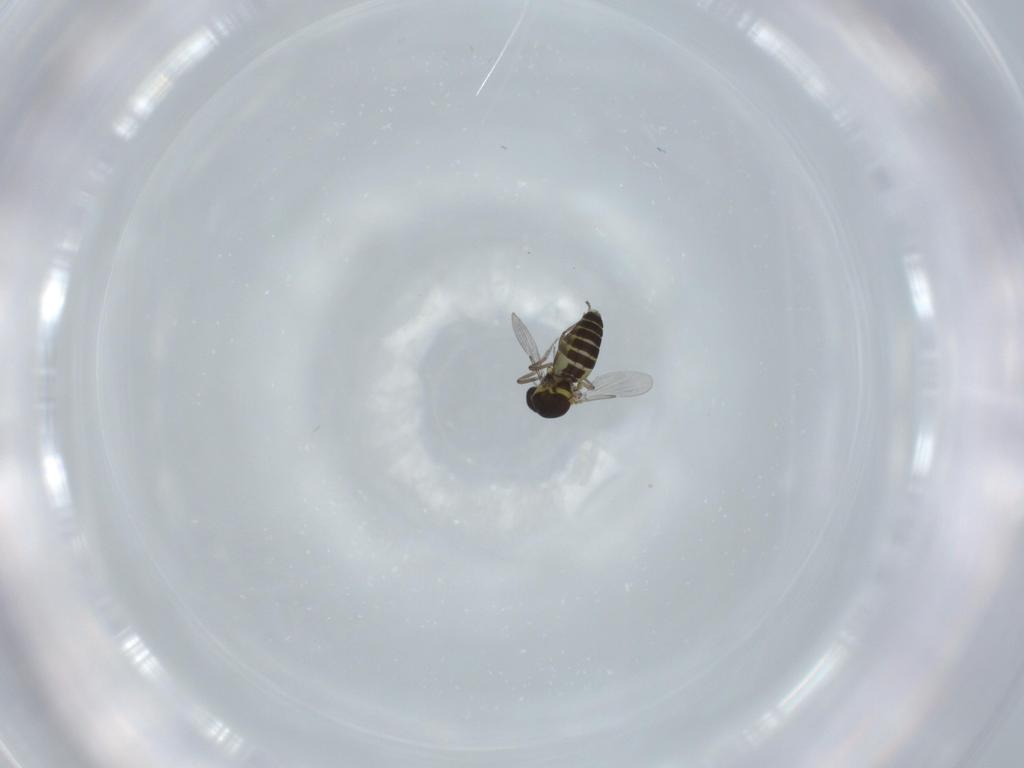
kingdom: Animalia
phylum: Arthropoda
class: Insecta
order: Diptera
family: Chironomidae
